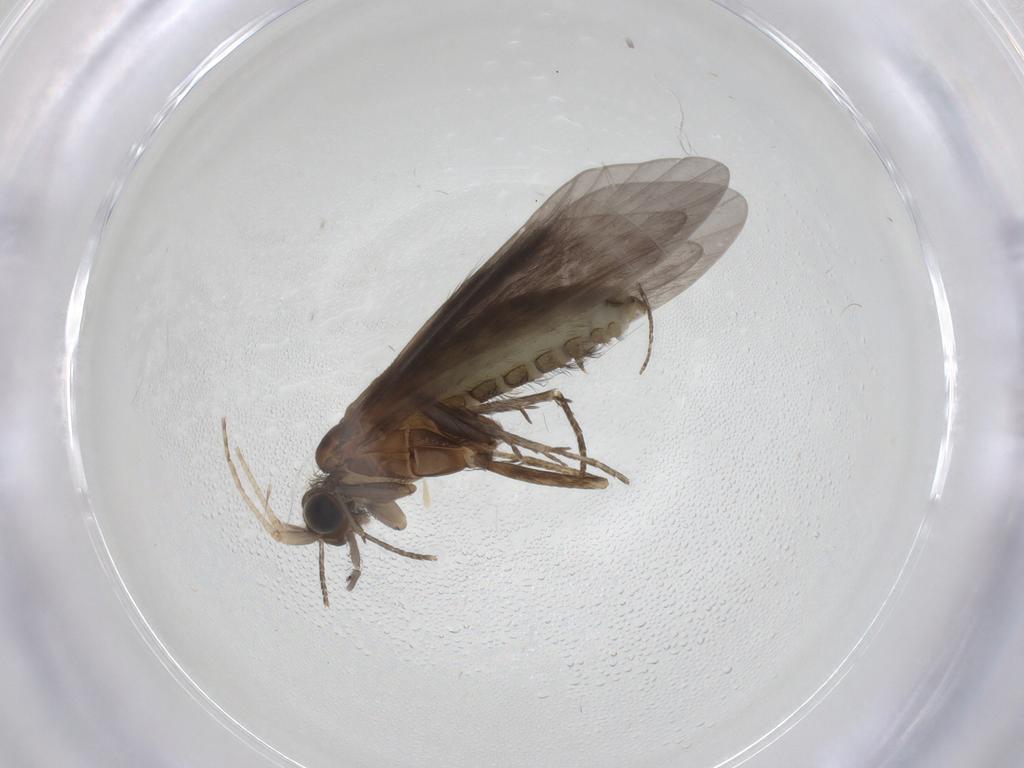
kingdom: Animalia
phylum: Arthropoda
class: Insecta
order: Trichoptera
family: Helicopsychidae
